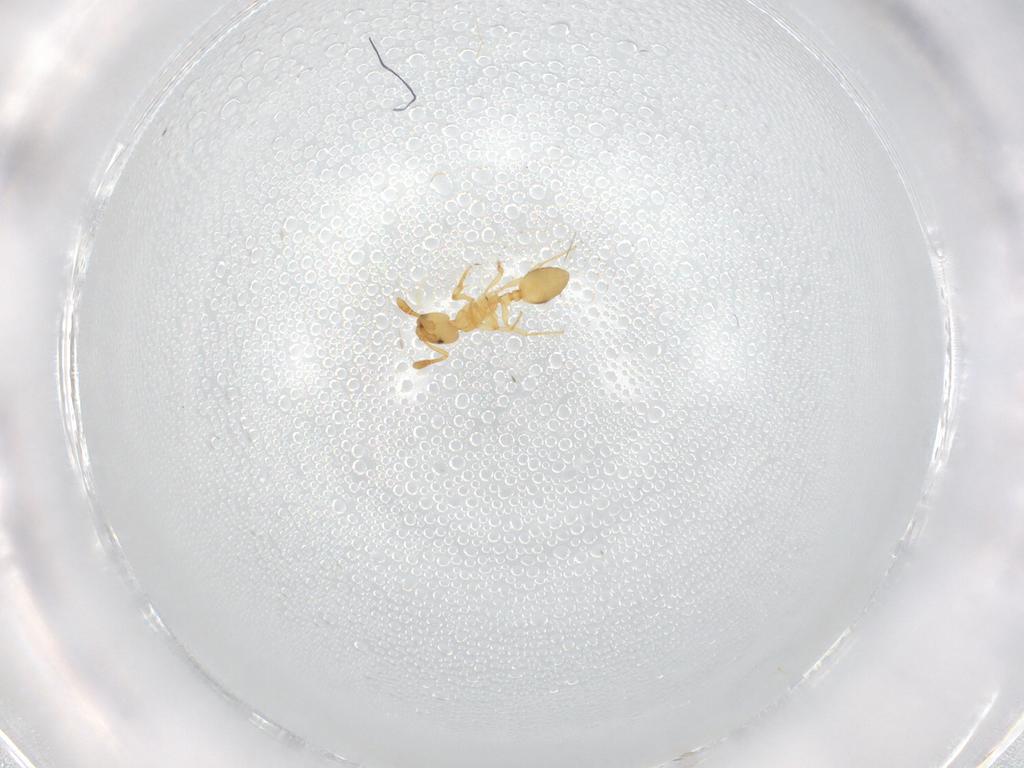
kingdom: Animalia
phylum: Arthropoda
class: Insecta
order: Hymenoptera
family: Formicidae
